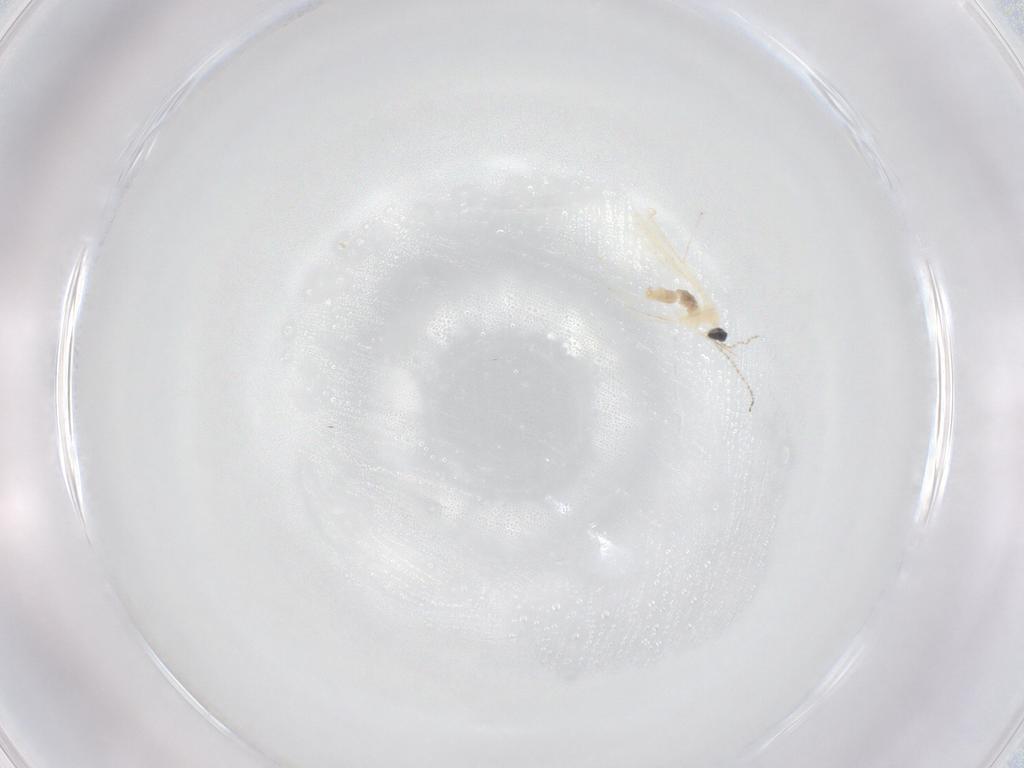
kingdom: Animalia
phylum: Arthropoda
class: Insecta
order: Diptera
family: Cecidomyiidae
